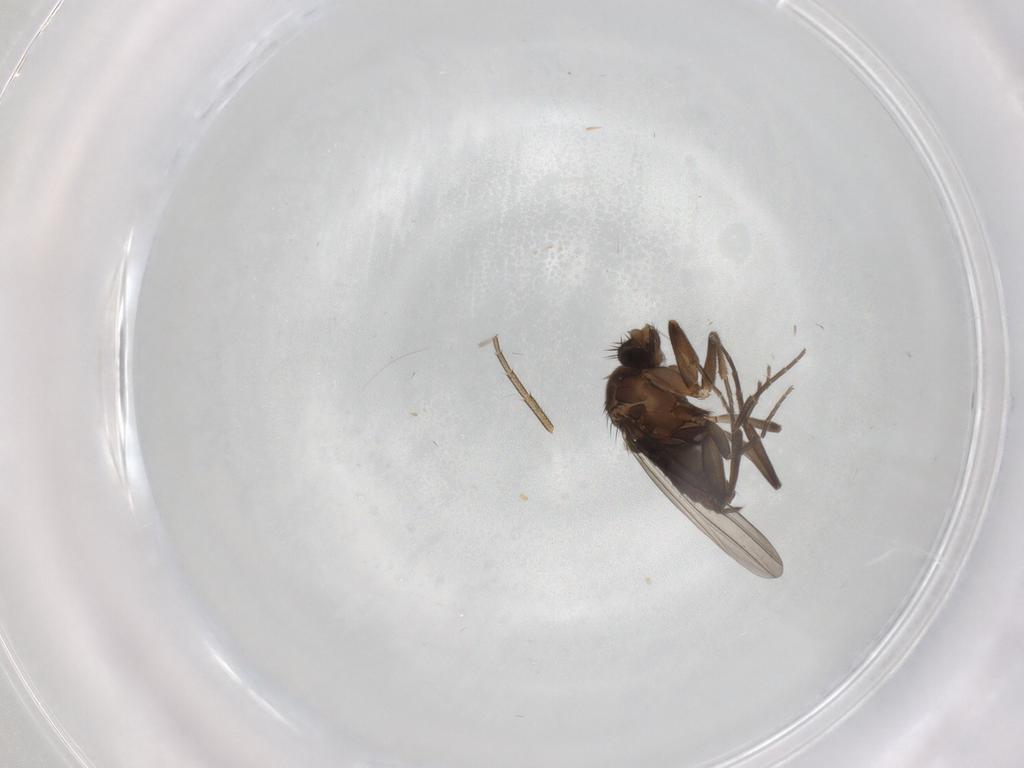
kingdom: Animalia
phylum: Arthropoda
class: Insecta
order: Diptera
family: Cecidomyiidae
